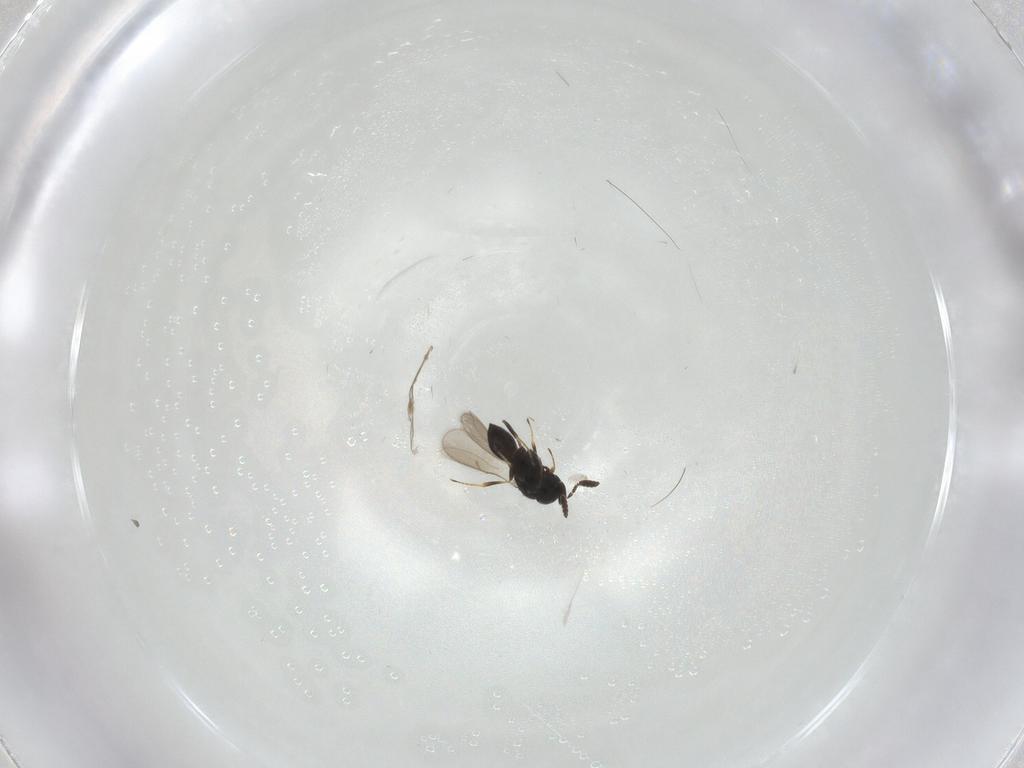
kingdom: Animalia
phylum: Arthropoda
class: Insecta
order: Hymenoptera
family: Scelionidae
